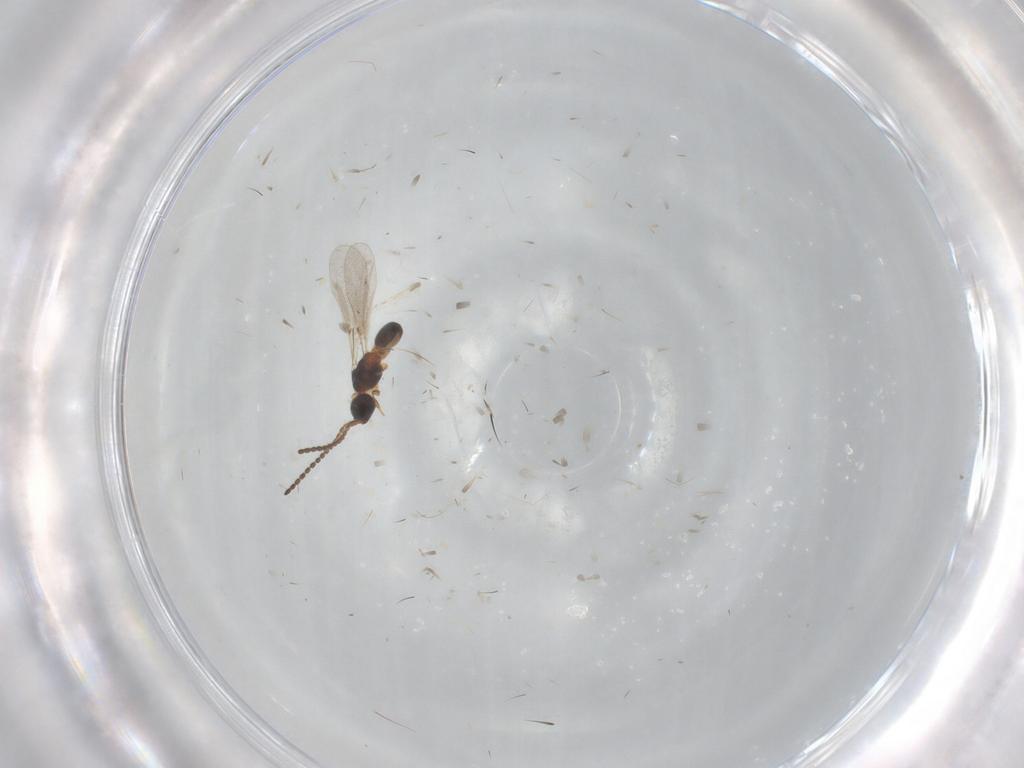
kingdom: Animalia
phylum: Arthropoda
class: Insecta
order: Hymenoptera
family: Diapriidae
